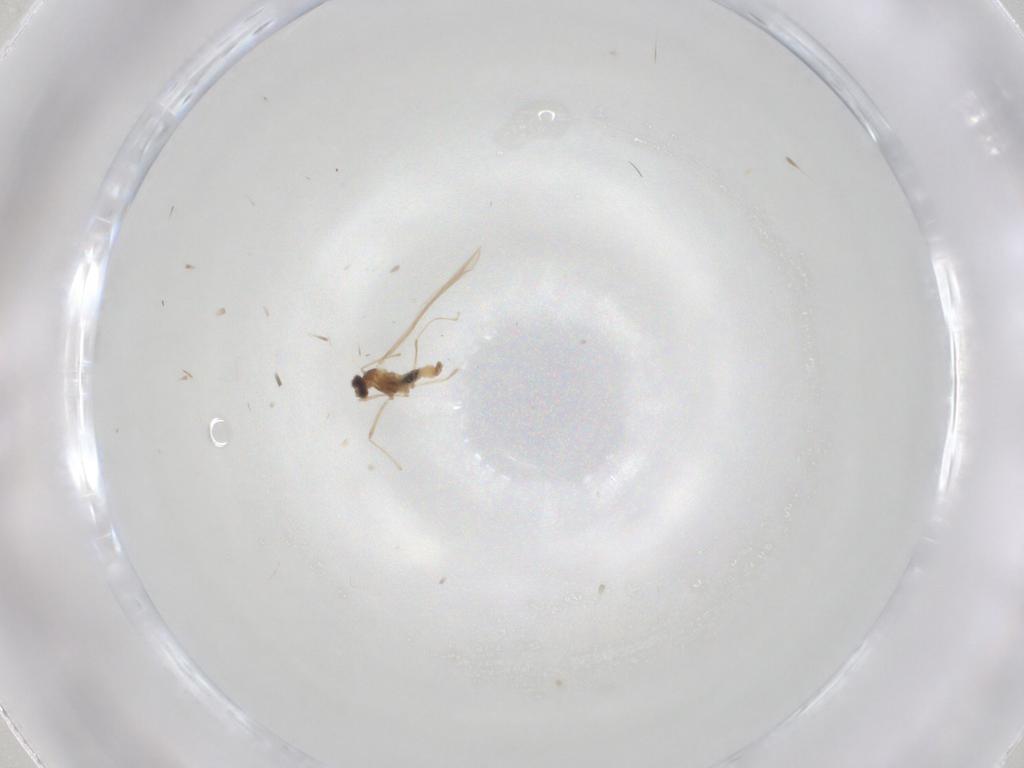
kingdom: Animalia
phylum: Arthropoda
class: Insecta
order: Diptera
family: Cecidomyiidae
